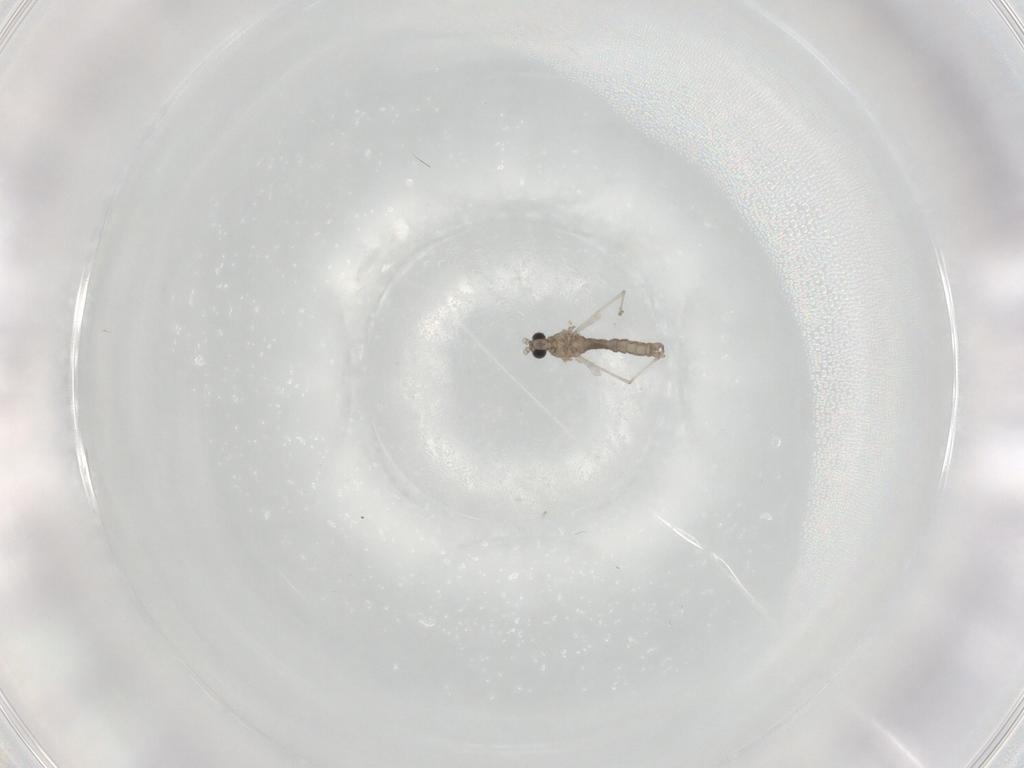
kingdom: Animalia
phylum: Arthropoda
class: Insecta
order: Diptera
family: Cecidomyiidae
